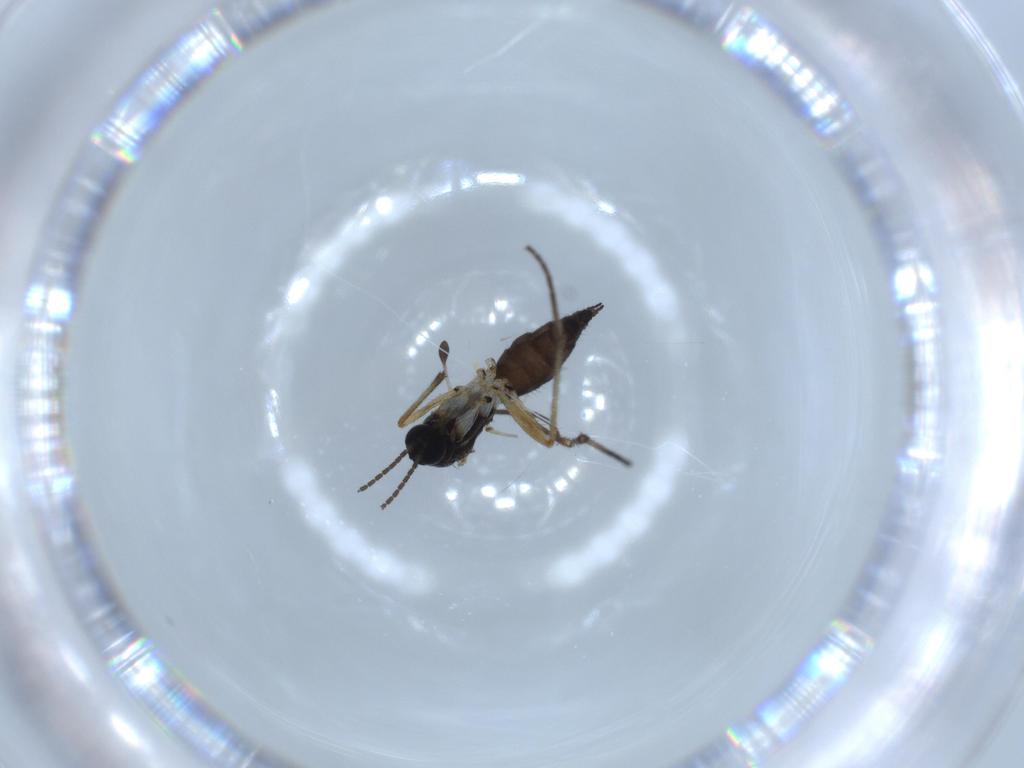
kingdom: Animalia
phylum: Arthropoda
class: Insecta
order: Diptera
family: Sciaridae
